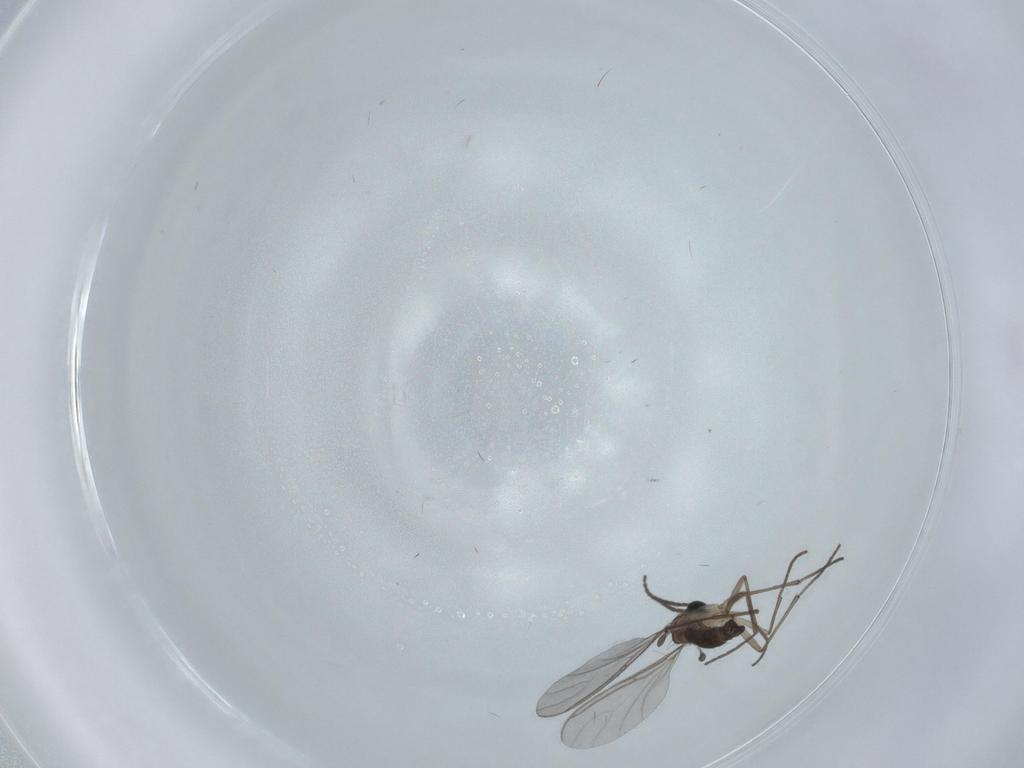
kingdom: Animalia
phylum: Arthropoda
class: Insecta
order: Diptera
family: Sciaridae
